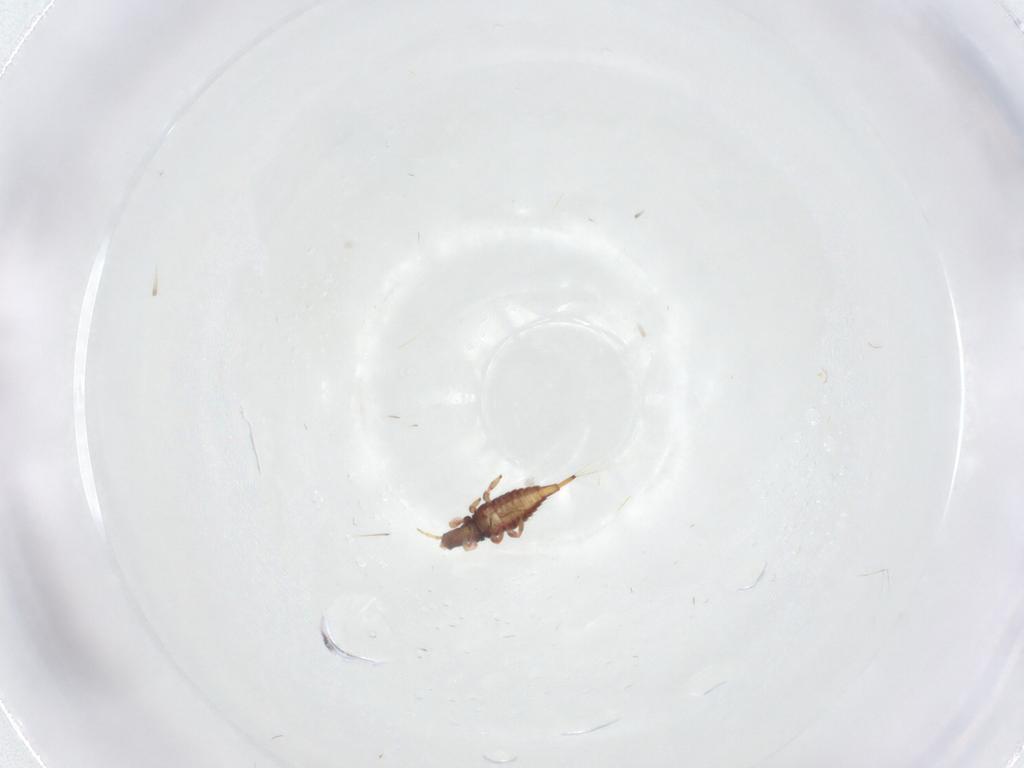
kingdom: Animalia
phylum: Arthropoda
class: Insecta
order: Thysanoptera
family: Phlaeothripidae
